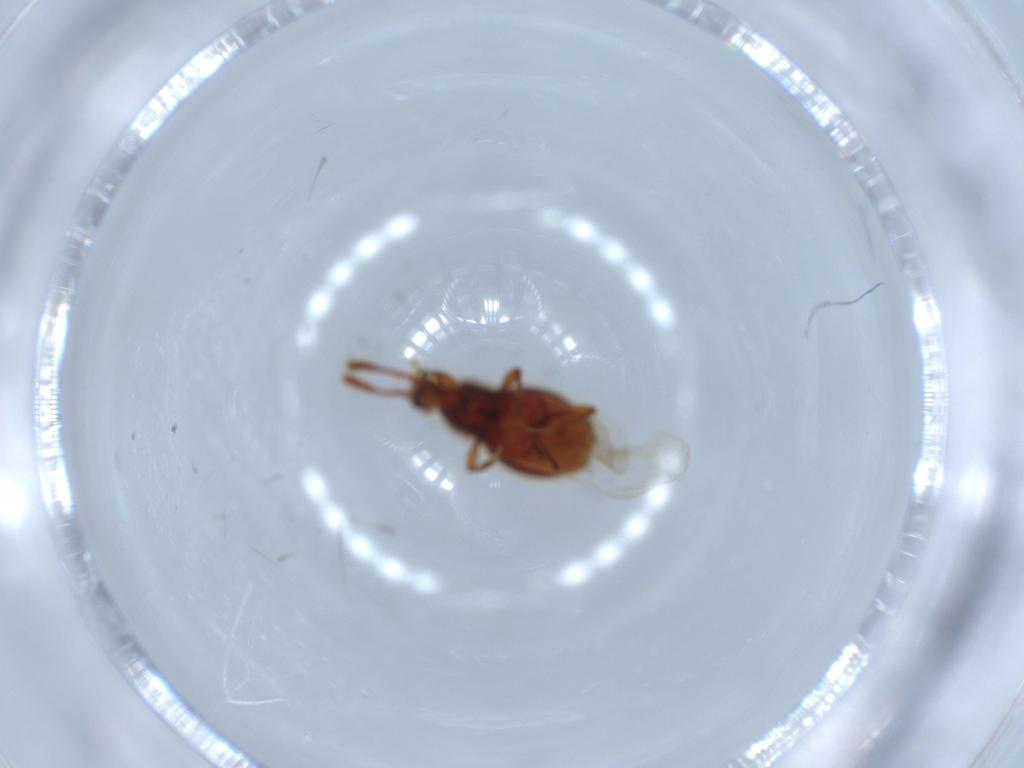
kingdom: Animalia
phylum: Arthropoda
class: Insecta
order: Coleoptera
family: Staphylinidae
